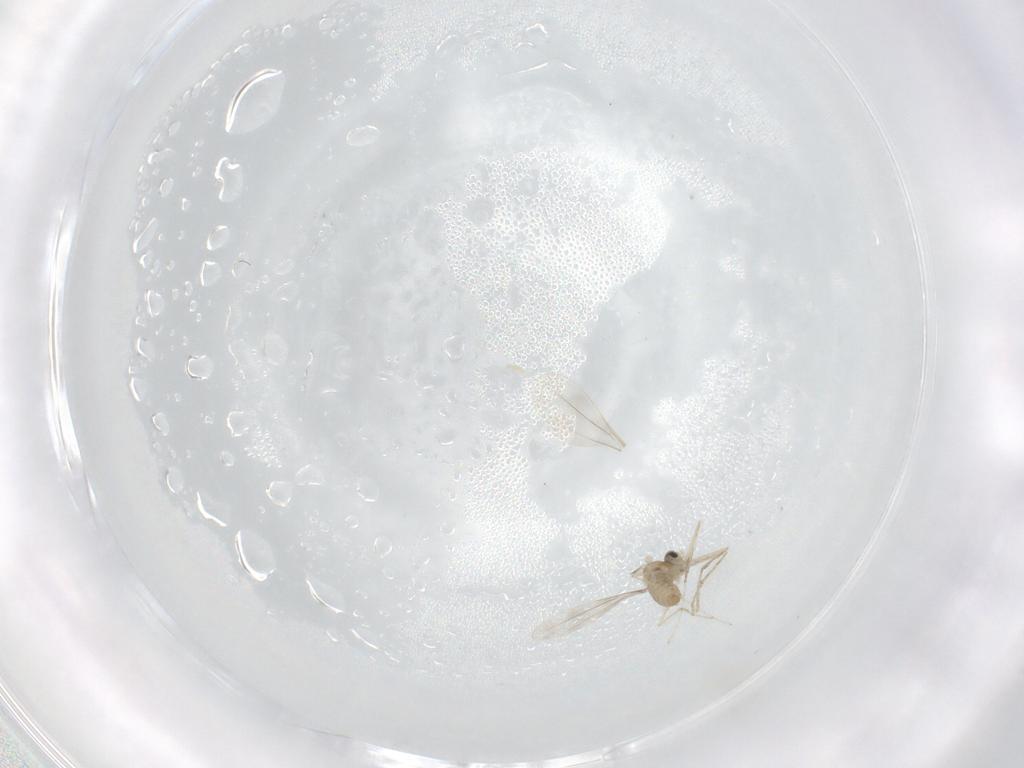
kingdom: Animalia
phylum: Arthropoda
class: Insecta
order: Diptera
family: Cecidomyiidae
